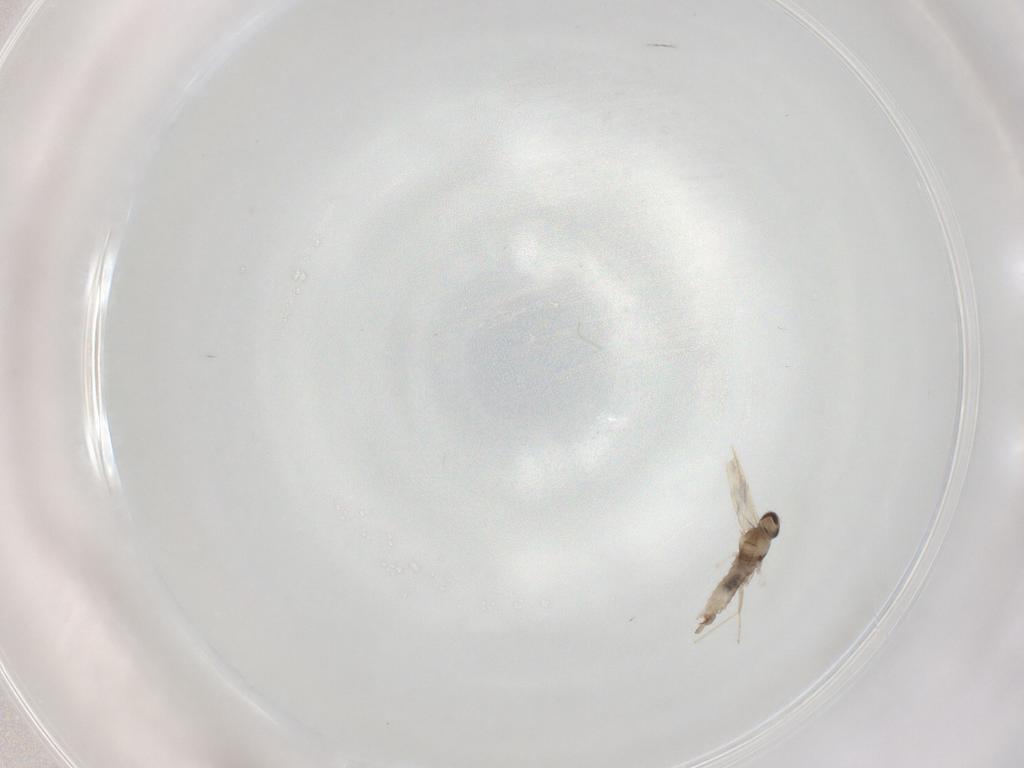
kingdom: Animalia
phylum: Arthropoda
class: Insecta
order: Diptera
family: Cecidomyiidae
